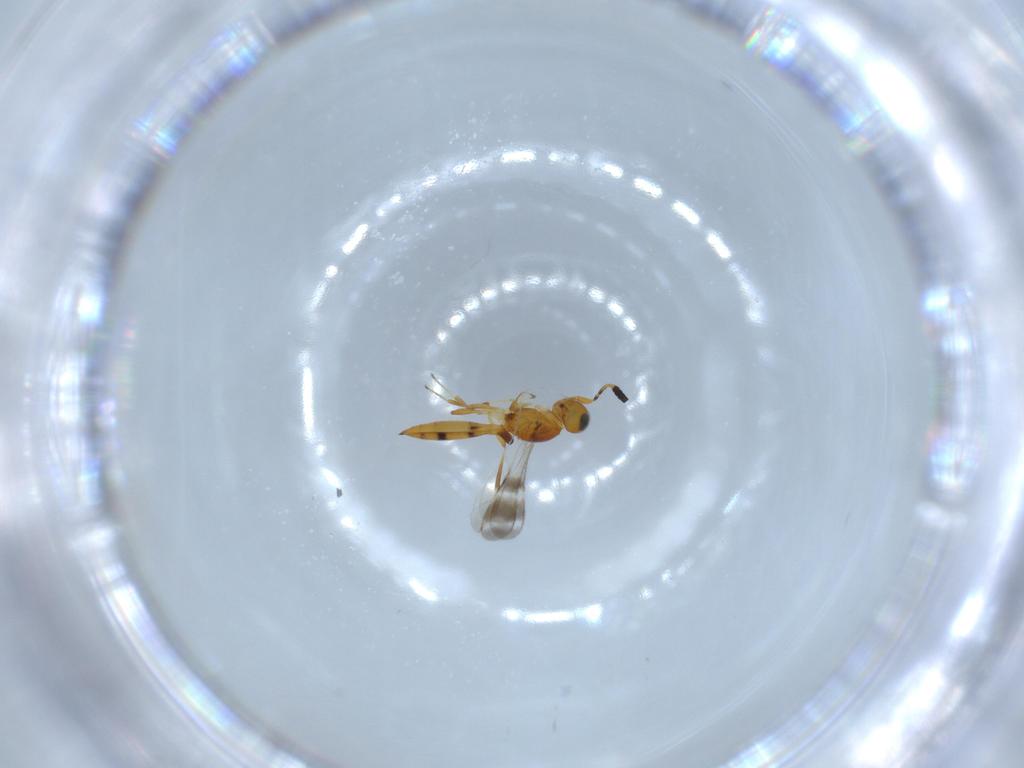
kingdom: Animalia
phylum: Arthropoda
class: Insecta
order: Hymenoptera
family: Scelionidae
